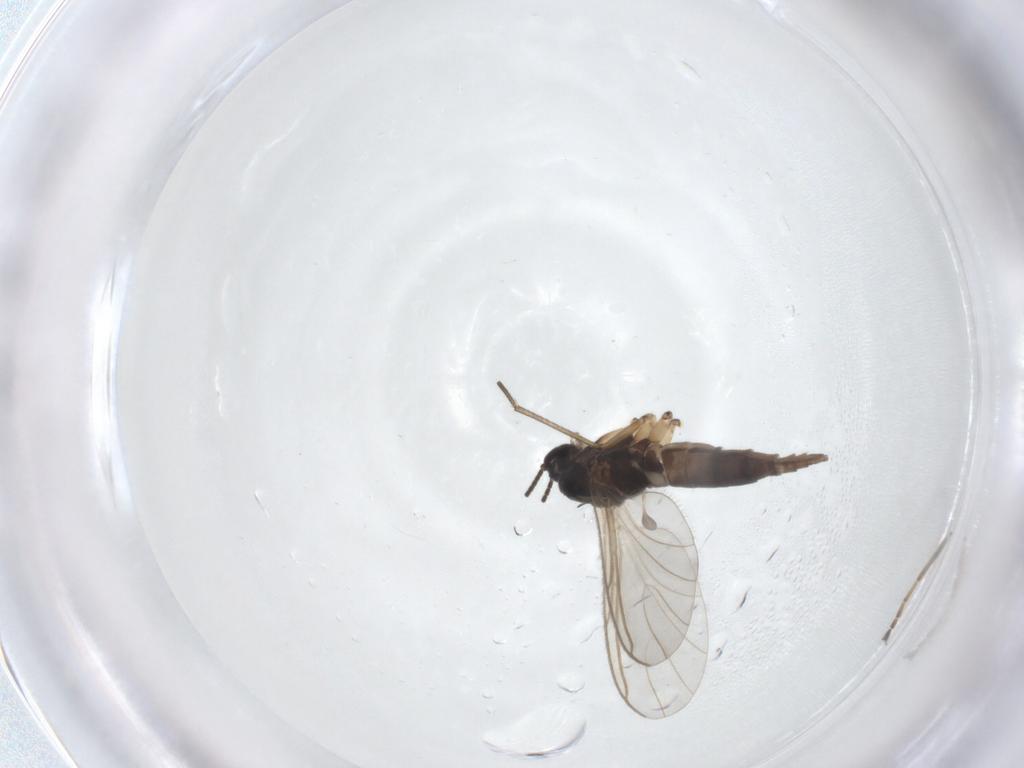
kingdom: Animalia
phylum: Arthropoda
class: Insecta
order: Diptera
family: Sciaridae
